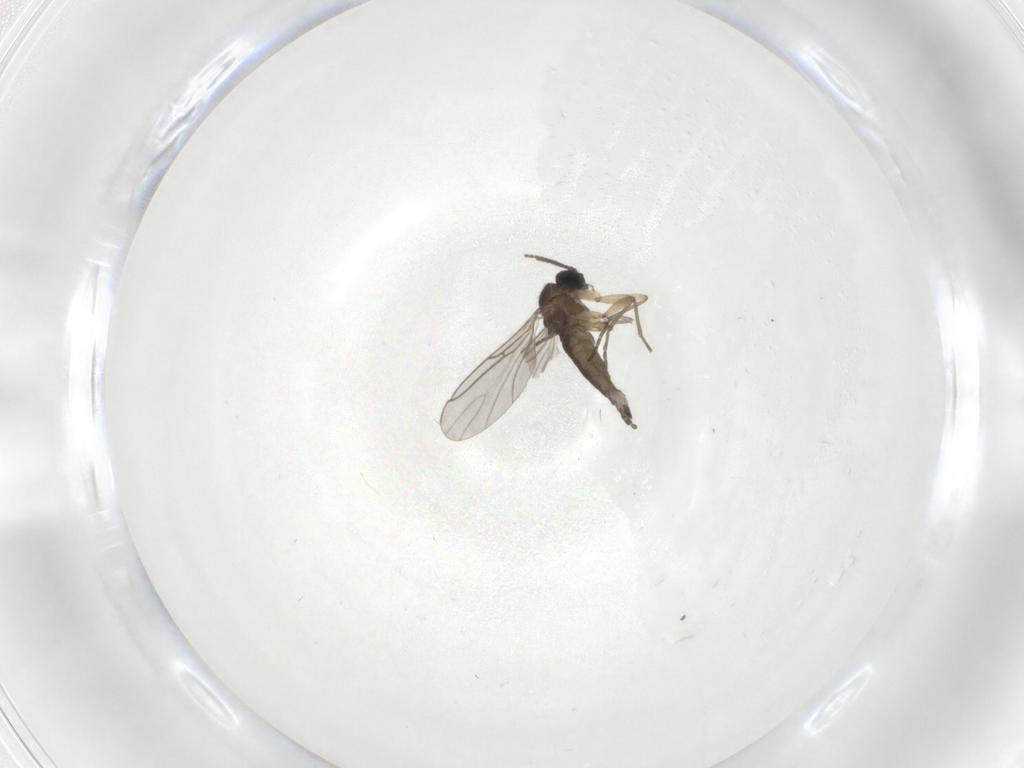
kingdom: Animalia
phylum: Arthropoda
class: Insecta
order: Diptera
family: Sciaridae
